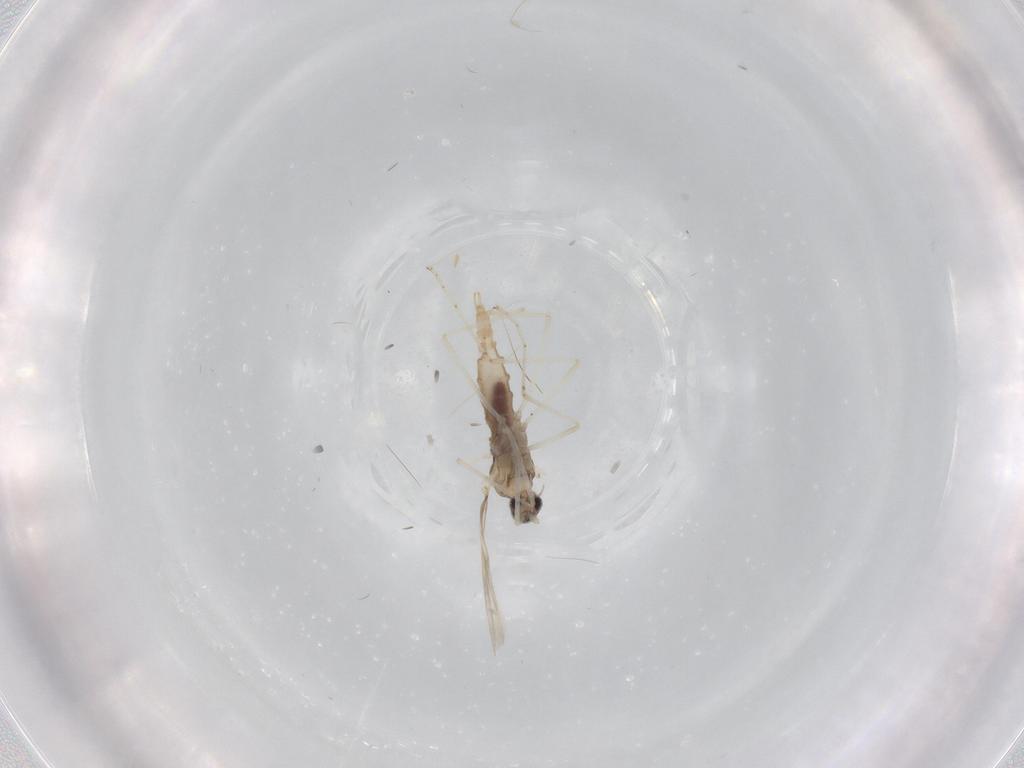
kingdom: Animalia
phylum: Arthropoda
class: Insecta
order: Diptera
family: Cecidomyiidae
